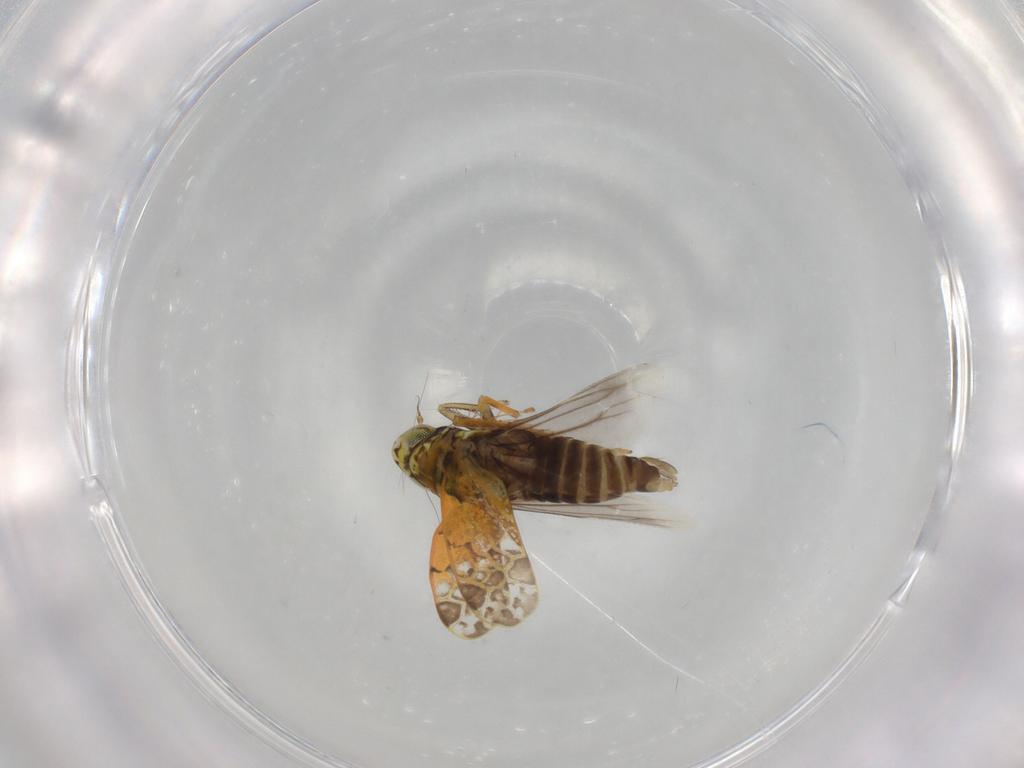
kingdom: Animalia
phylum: Arthropoda
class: Insecta
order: Hemiptera
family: Cicadellidae
